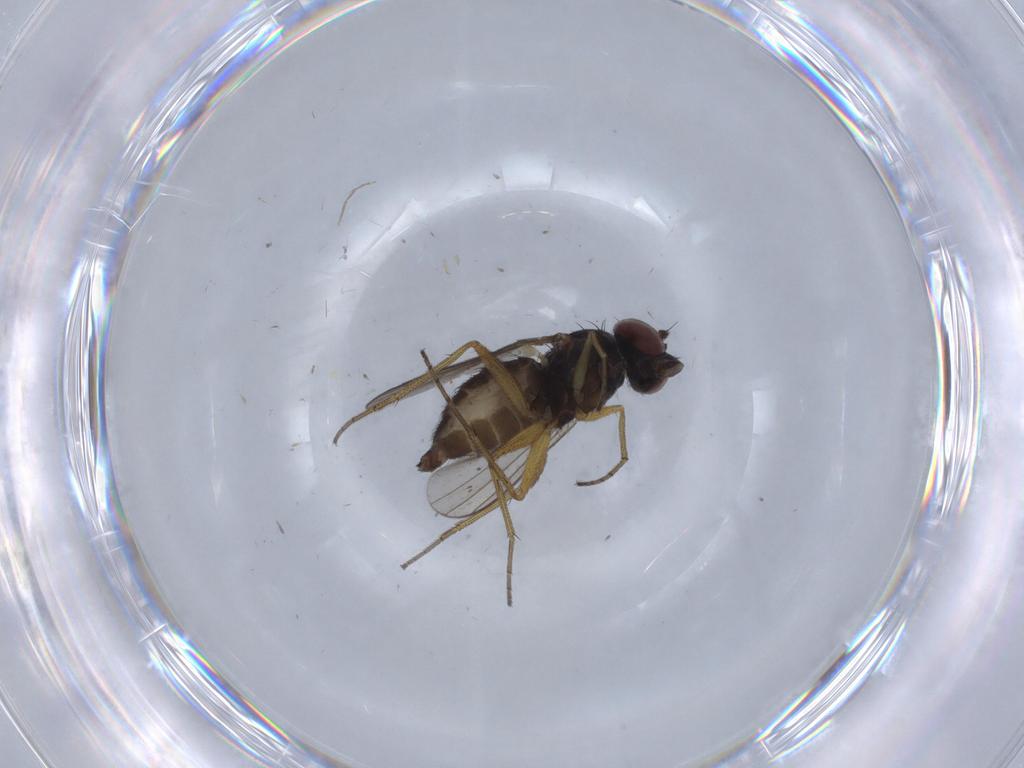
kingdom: Animalia
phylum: Arthropoda
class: Insecta
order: Diptera
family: Dolichopodidae
